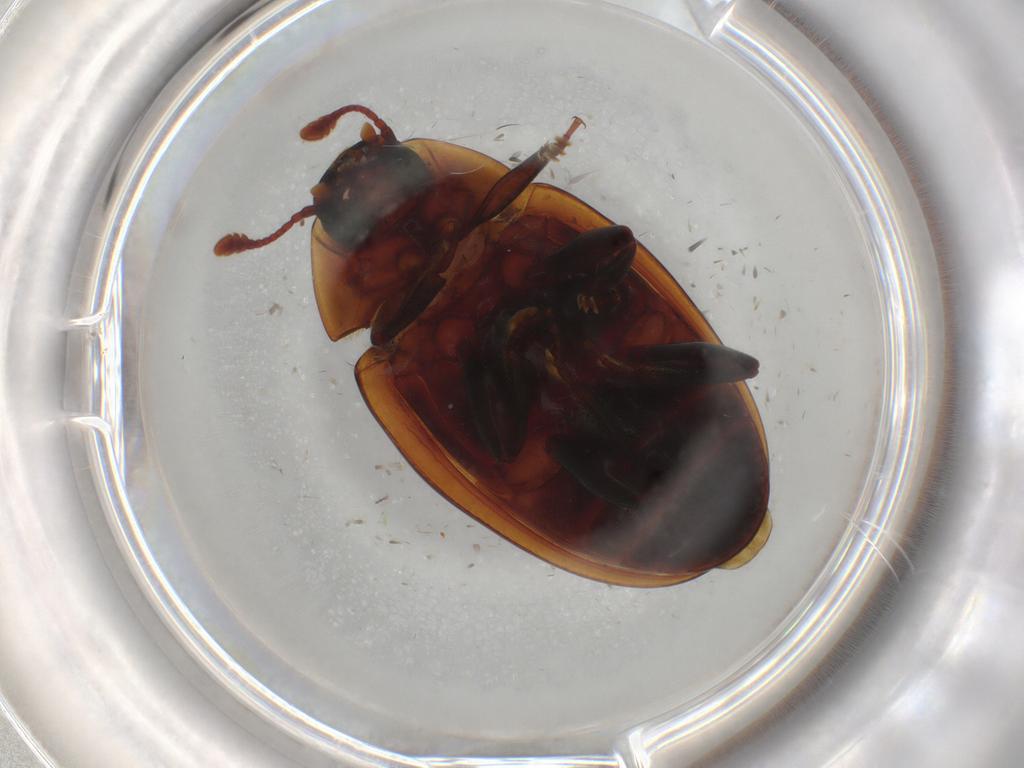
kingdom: Animalia
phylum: Arthropoda
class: Insecta
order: Coleoptera
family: Zopheridae
